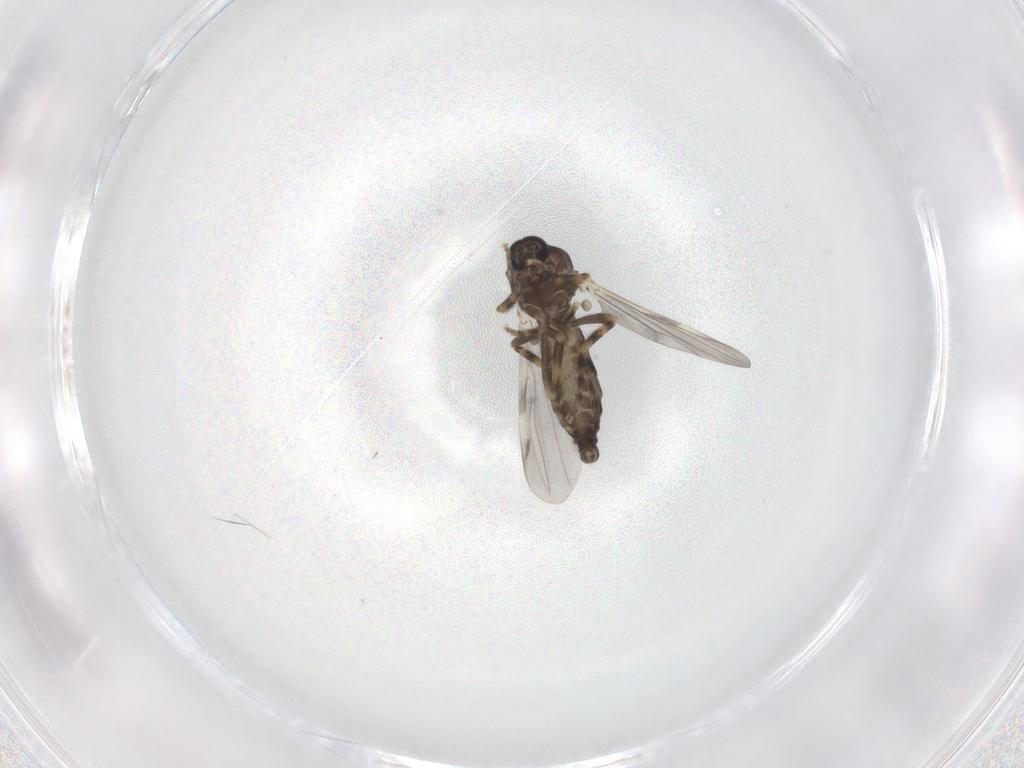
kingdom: Animalia
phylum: Arthropoda
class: Insecta
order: Diptera
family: Ceratopogonidae
